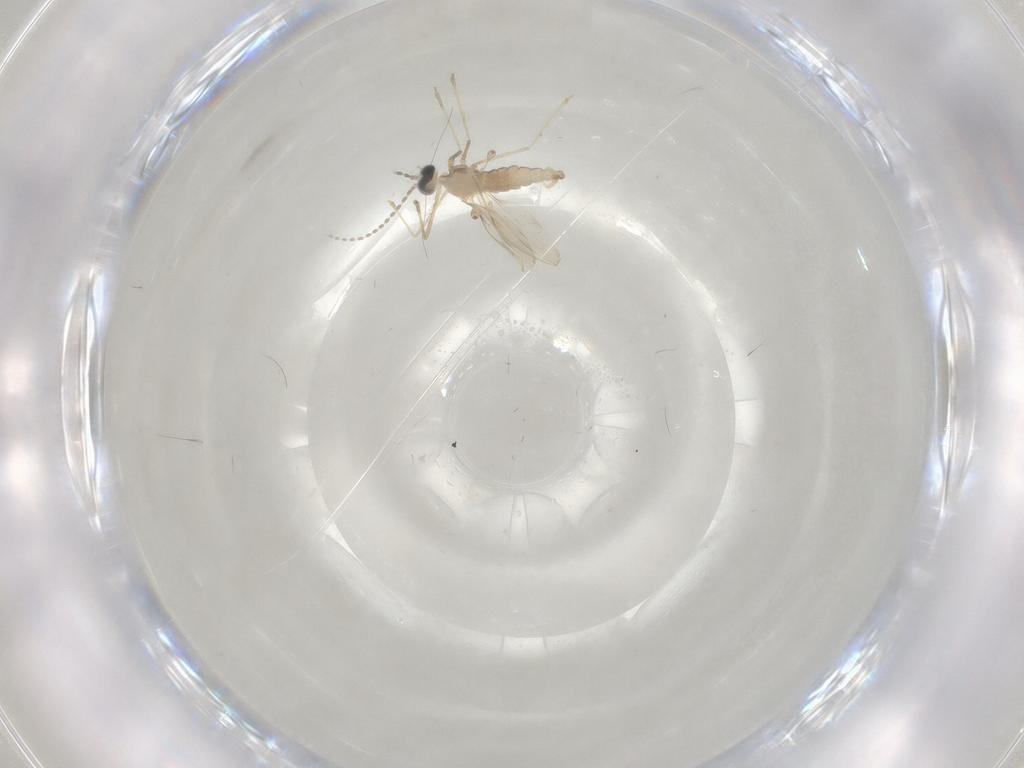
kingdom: Animalia
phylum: Arthropoda
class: Insecta
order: Diptera
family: Cecidomyiidae
